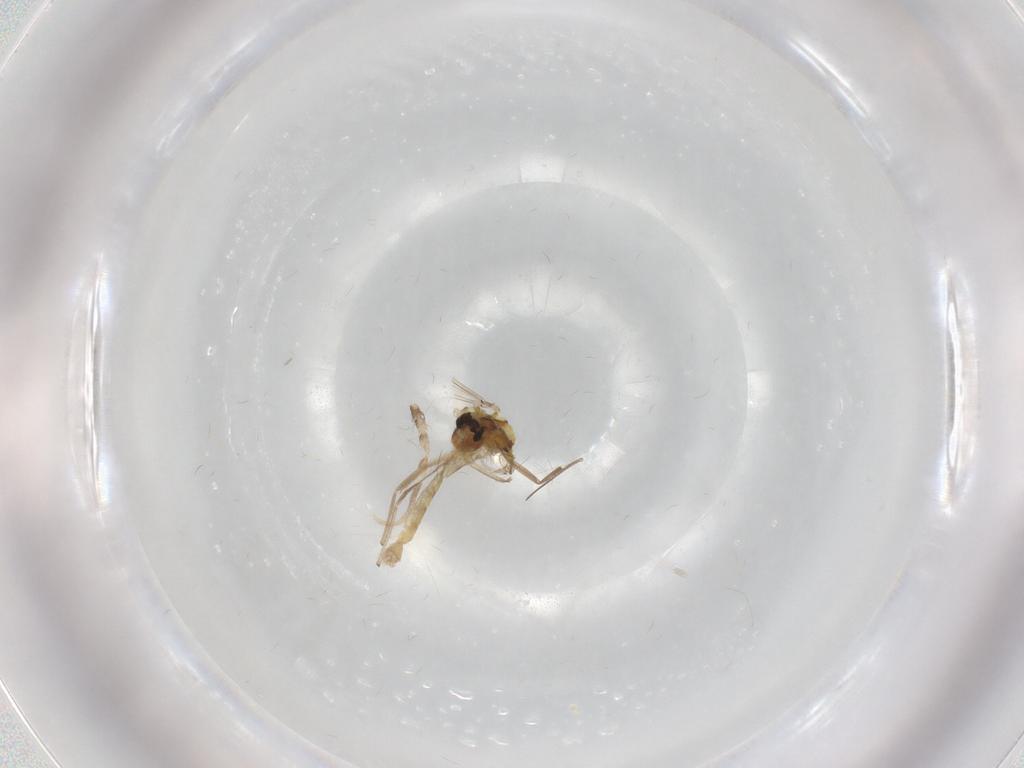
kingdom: Animalia
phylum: Arthropoda
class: Insecta
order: Diptera
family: Chironomidae
